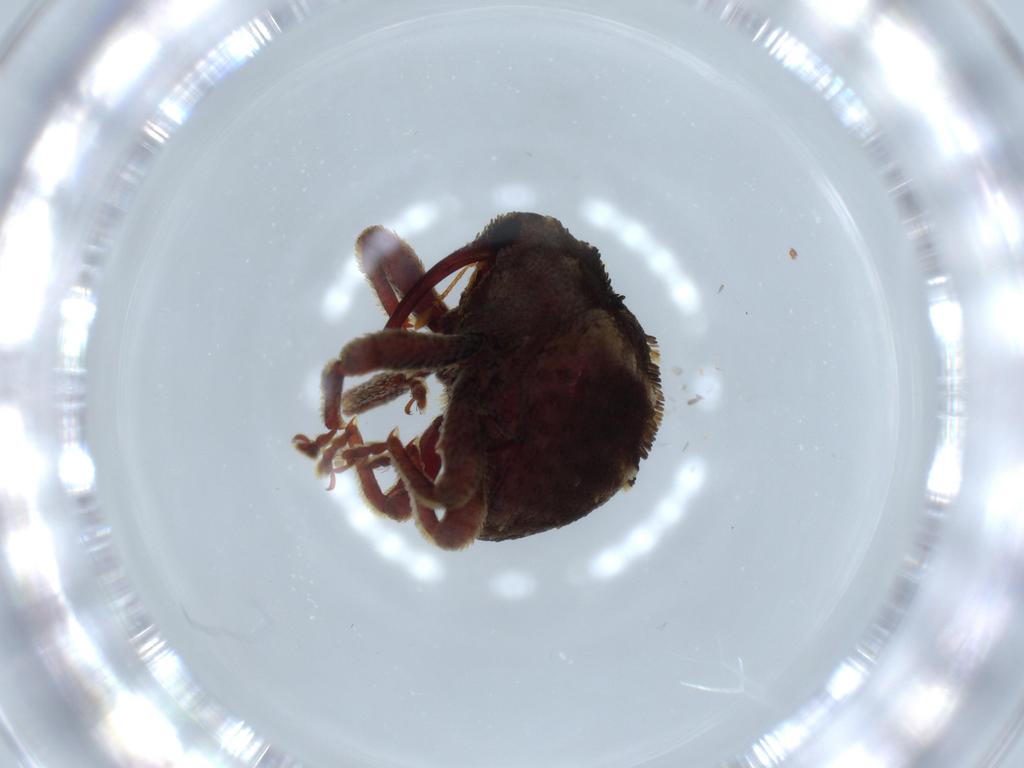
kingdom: Animalia
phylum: Arthropoda
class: Insecta
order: Coleoptera
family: Curculionidae
